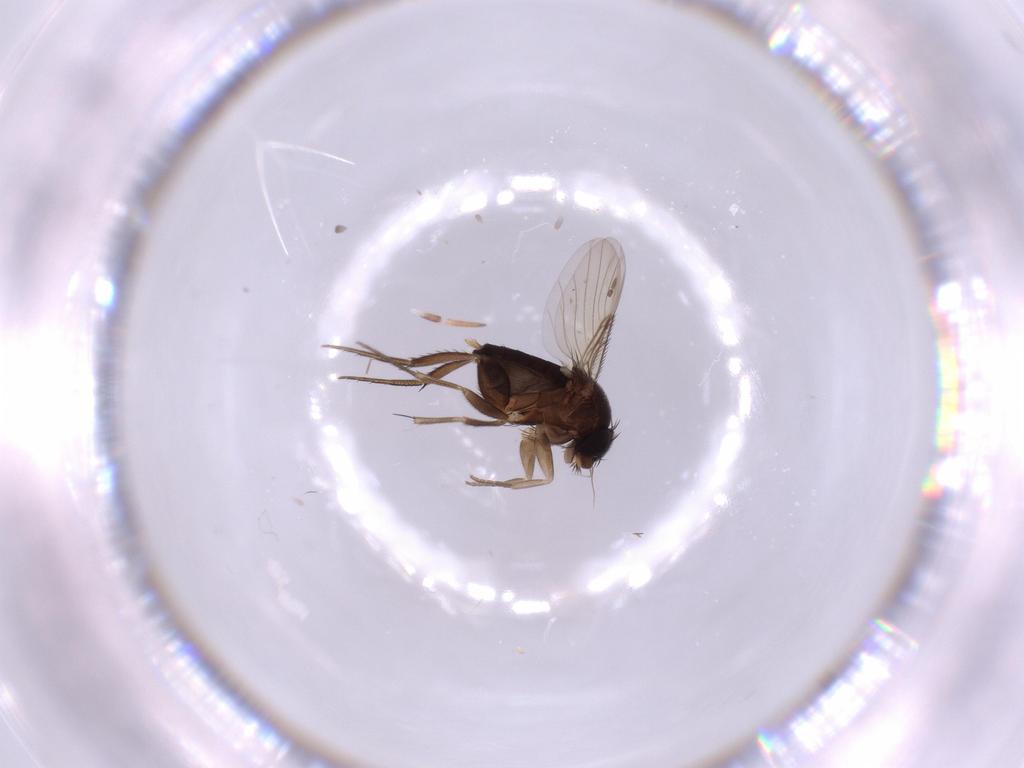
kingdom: Animalia
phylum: Arthropoda
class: Insecta
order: Diptera
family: Phoridae
